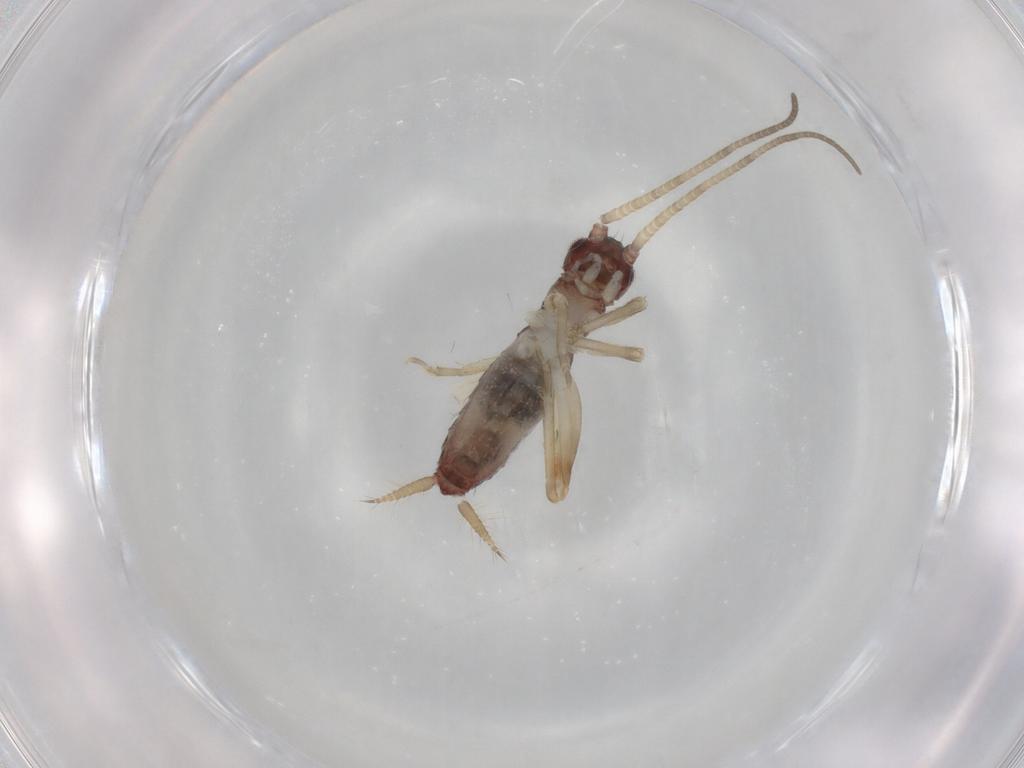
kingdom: Animalia
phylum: Arthropoda
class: Insecta
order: Orthoptera
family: Gryllidae
